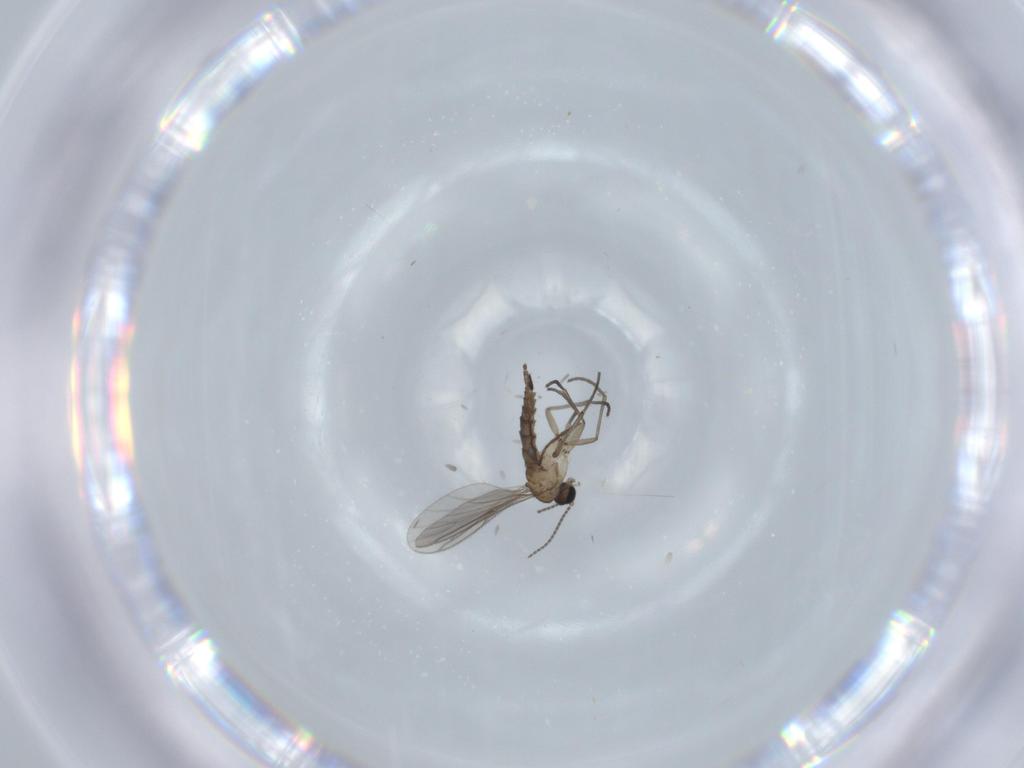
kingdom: Animalia
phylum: Arthropoda
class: Insecta
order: Diptera
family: Sciaridae
